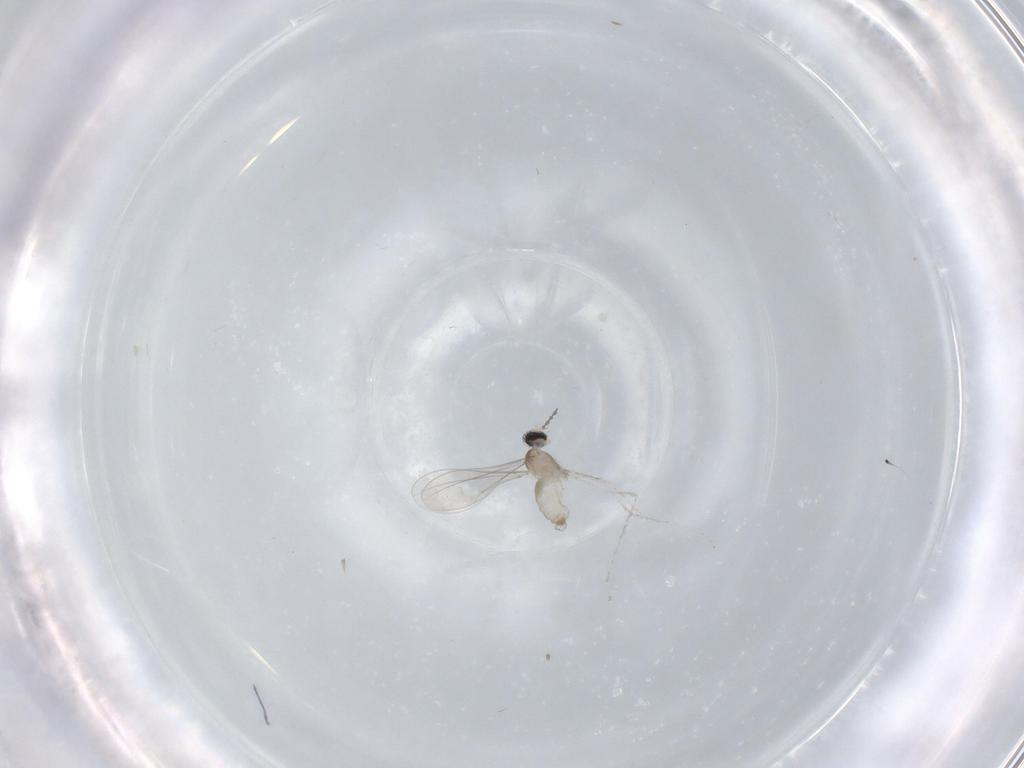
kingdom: Animalia
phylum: Arthropoda
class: Insecta
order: Diptera
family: Cecidomyiidae
